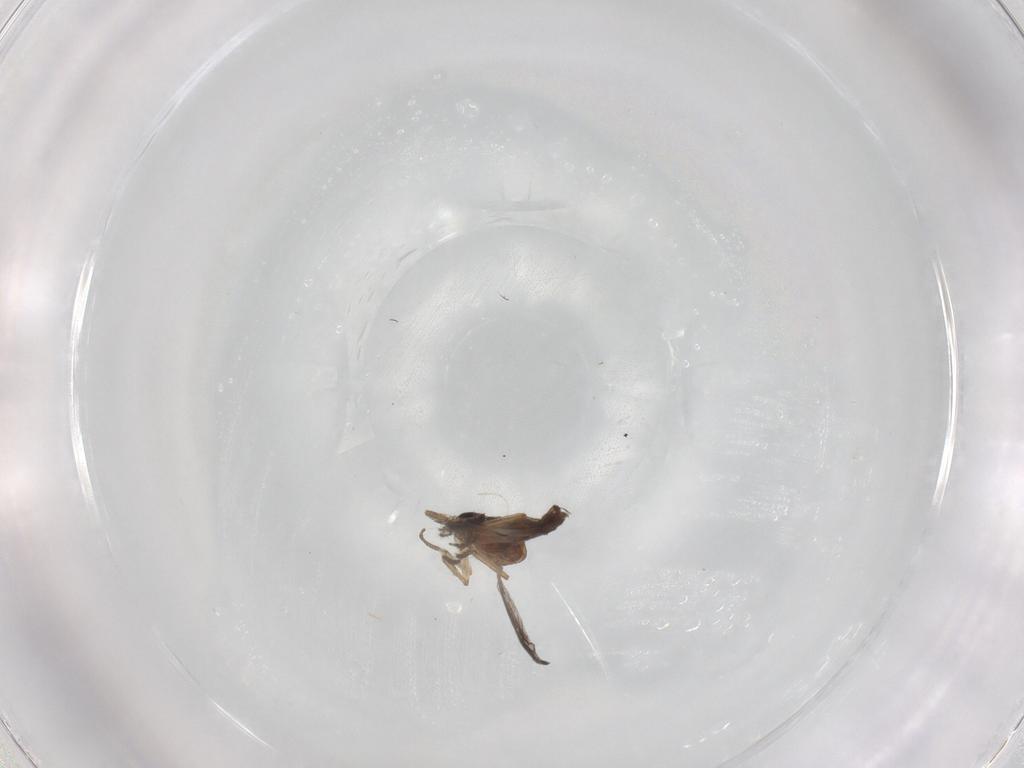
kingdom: Animalia
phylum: Arthropoda
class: Insecta
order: Diptera
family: Ceratopogonidae
